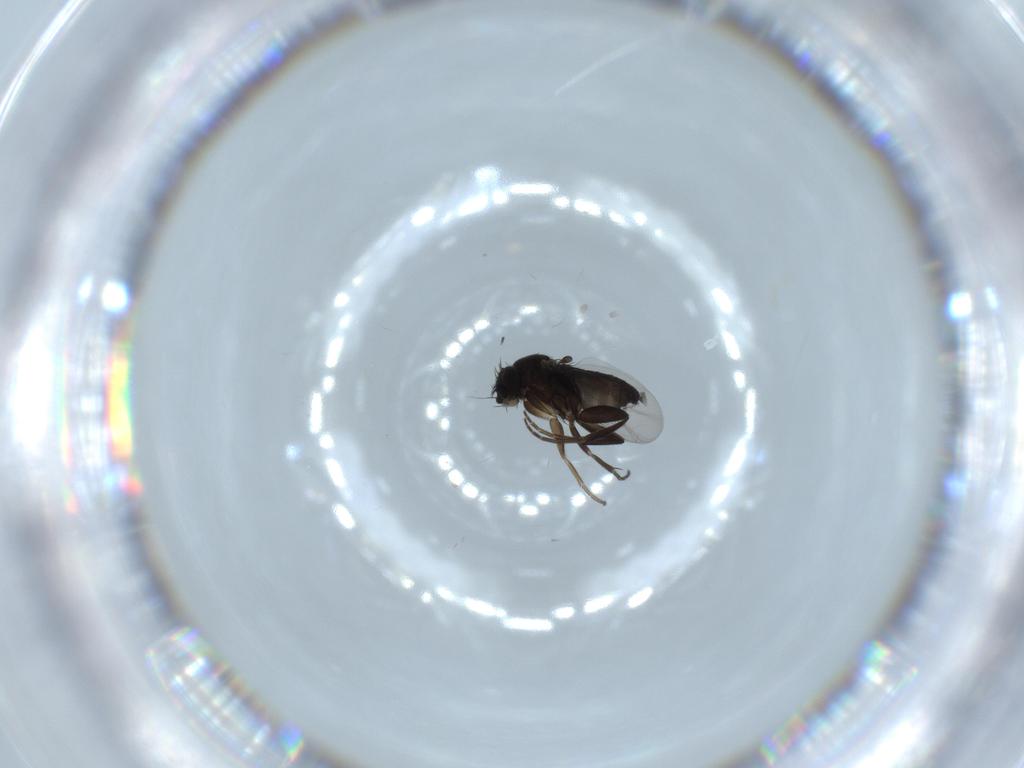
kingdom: Animalia
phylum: Arthropoda
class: Insecta
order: Diptera
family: Phoridae
